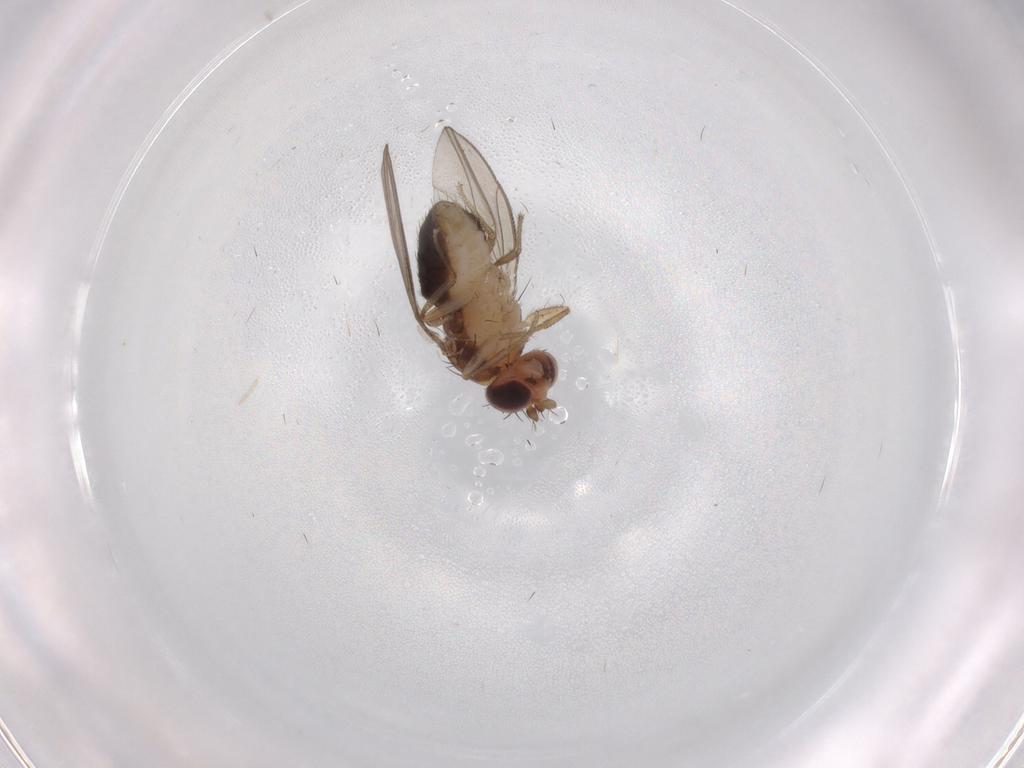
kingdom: Animalia
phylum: Arthropoda
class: Insecta
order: Diptera
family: Drosophilidae
